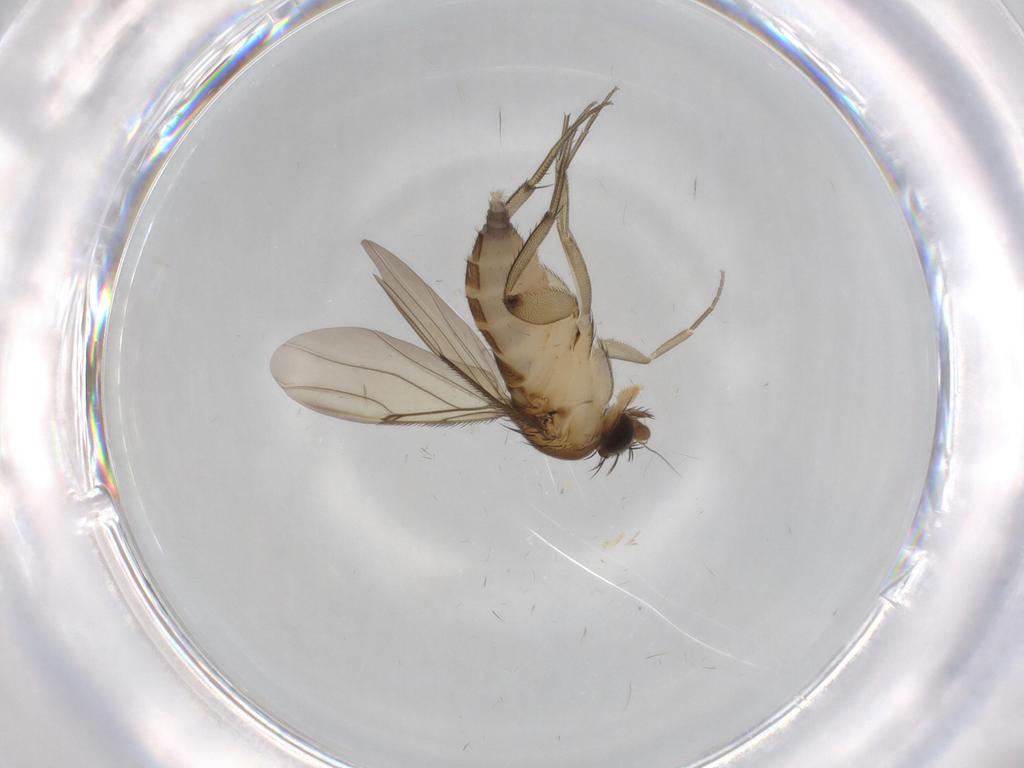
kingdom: Animalia
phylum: Arthropoda
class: Insecta
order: Diptera
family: Phoridae
